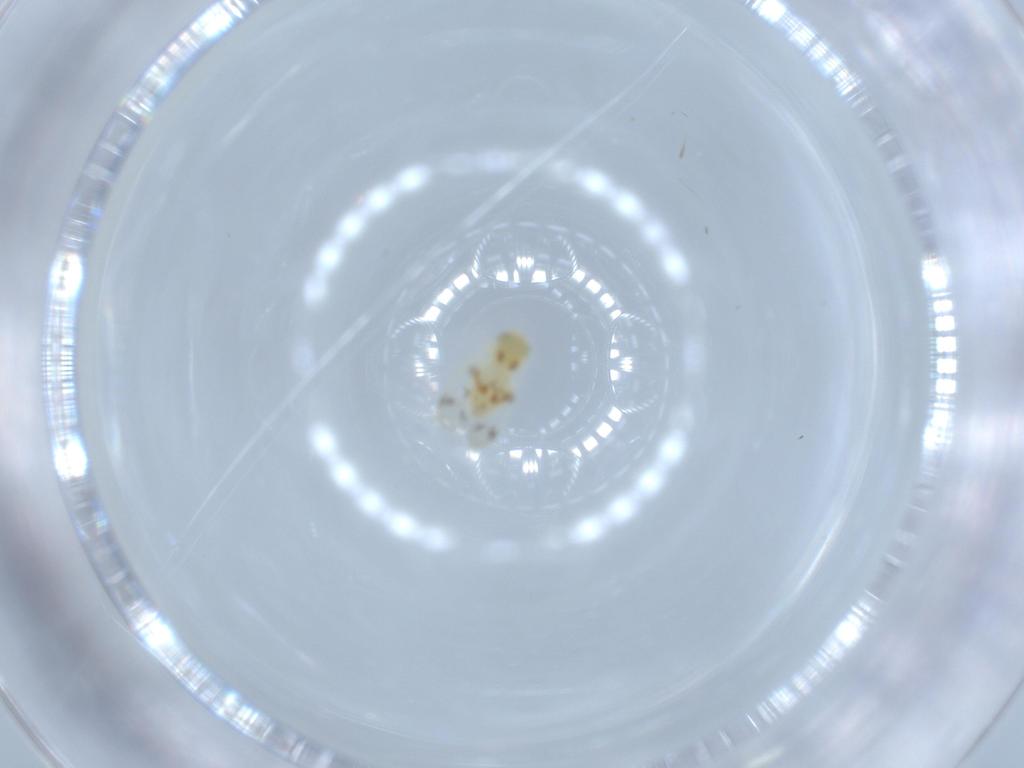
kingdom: Animalia
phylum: Arthropoda
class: Insecta
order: Hemiptera
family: Aleyrodidae
